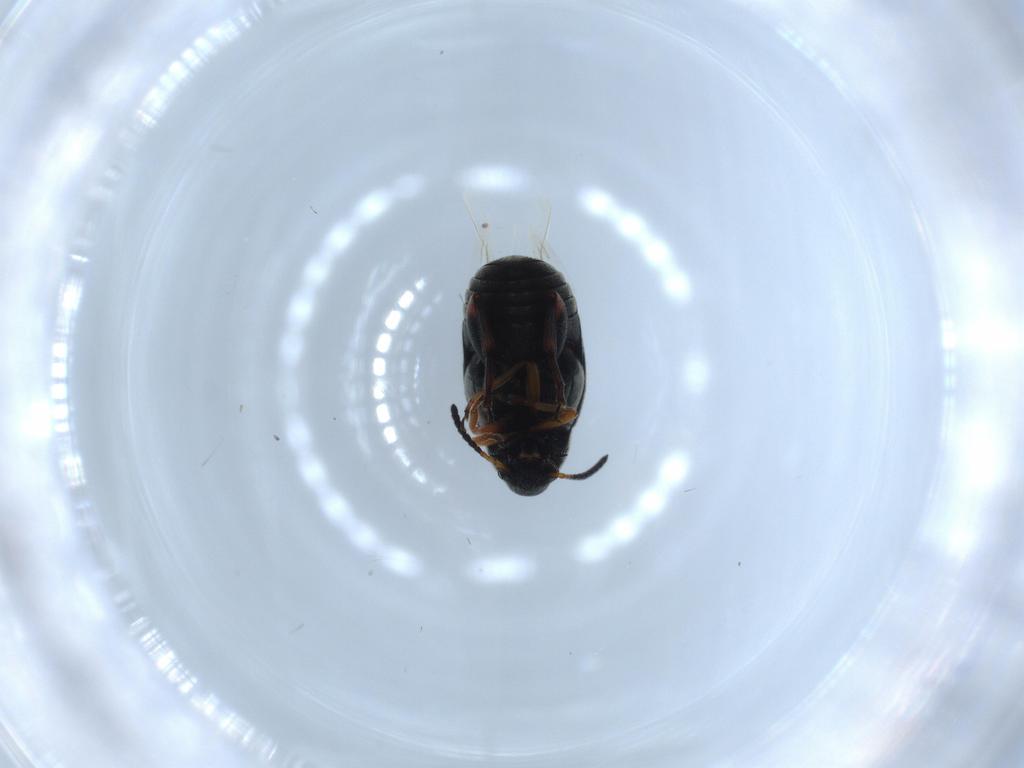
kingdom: Animalia
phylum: Arthropoda
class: Insecta
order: Coleoptera
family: Chrysomelidae
